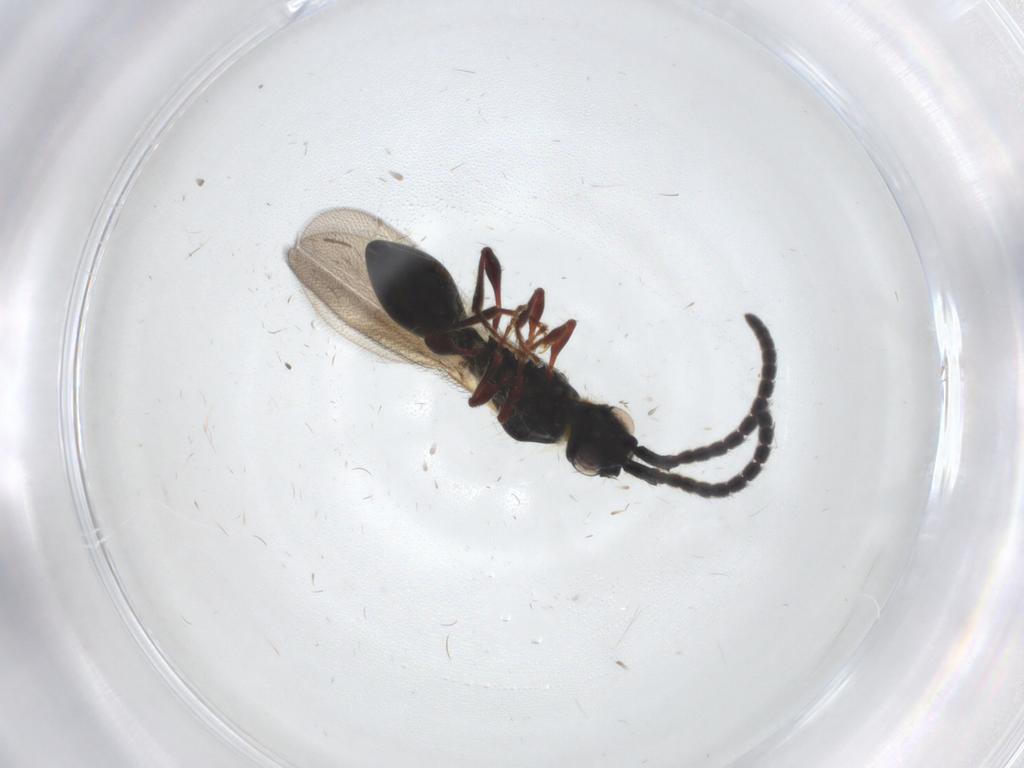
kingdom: Animalia
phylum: Arthropoda
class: Insecta
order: Hymenoptera
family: Diapriidae
